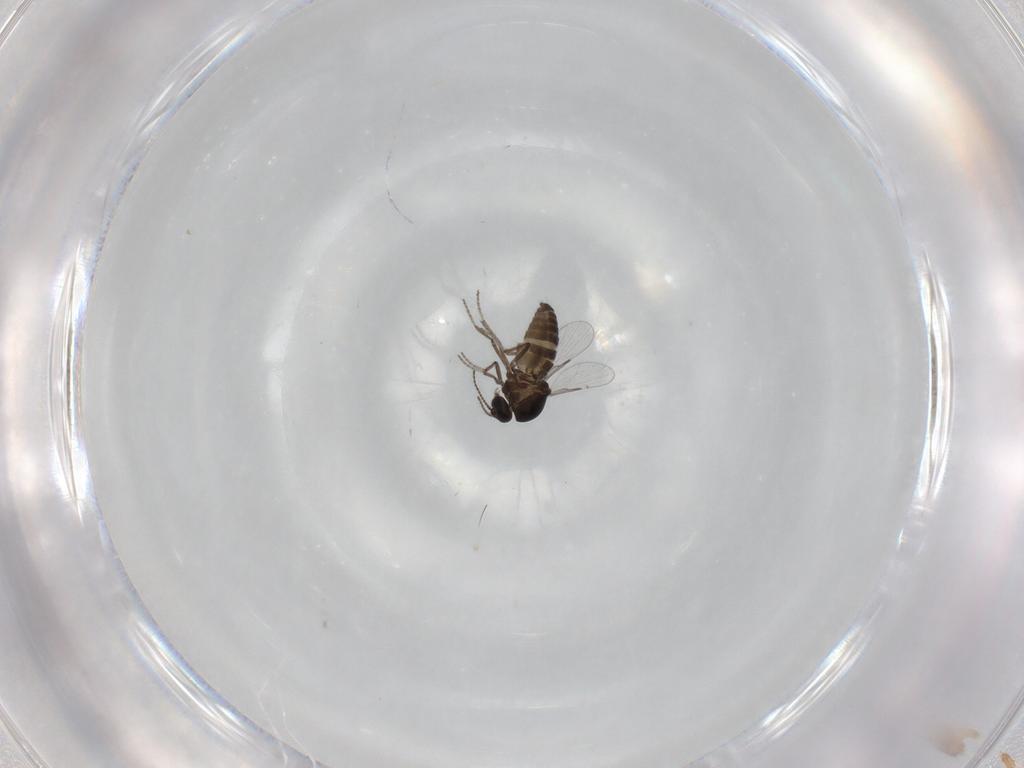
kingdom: Animalia
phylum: Arthropoda
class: Insecta
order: Diptera
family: Ceratopogonidae
